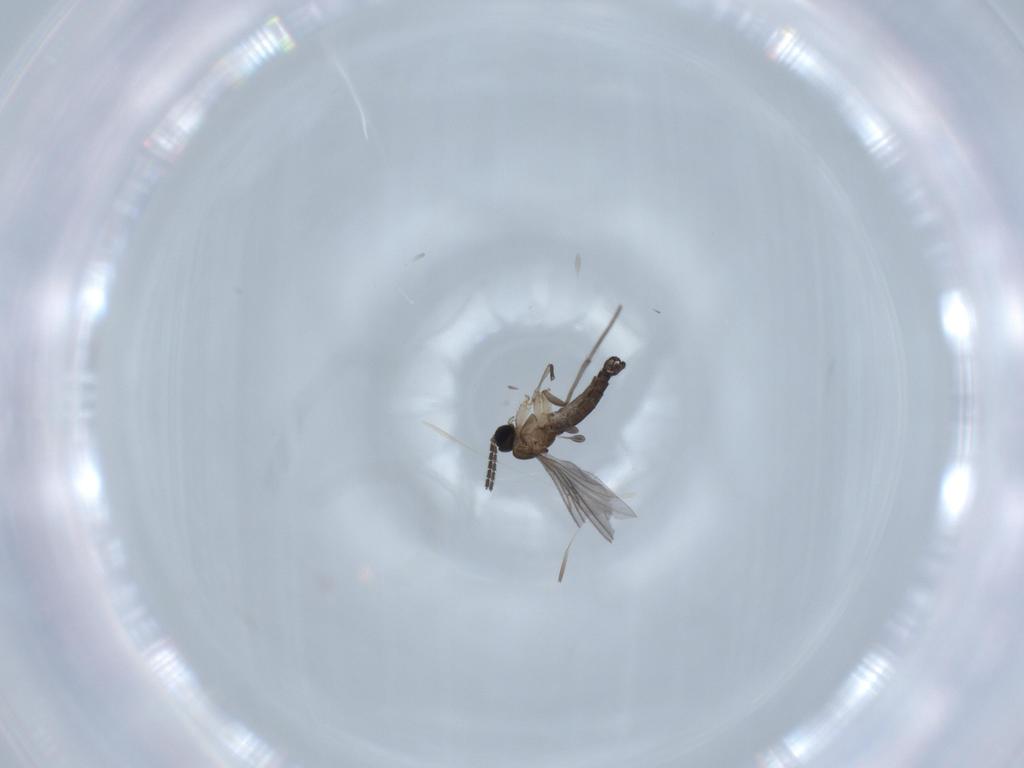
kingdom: Animalia
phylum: Arthropoda
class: Insecta
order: Diptera
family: Sciaridae
